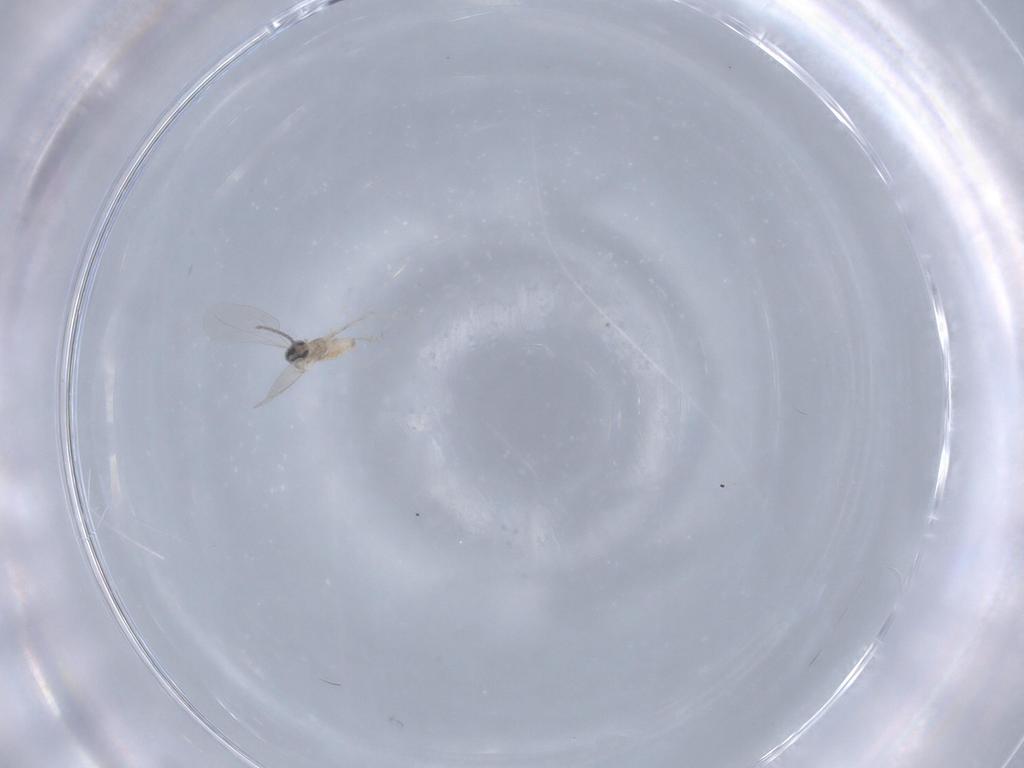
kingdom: Animalia
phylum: Arthropoda
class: Insecta
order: Diptera
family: Cecidomyiidae
